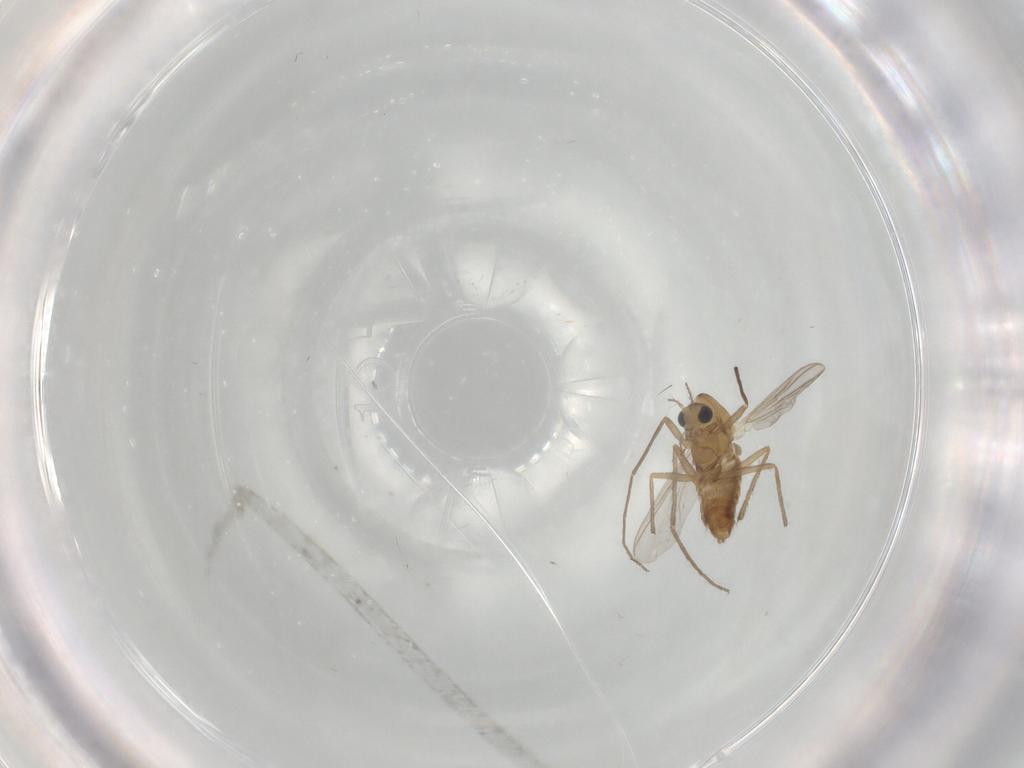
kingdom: Animalia
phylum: Arthropoda
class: Insecta
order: Diptera
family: Chironomidae
